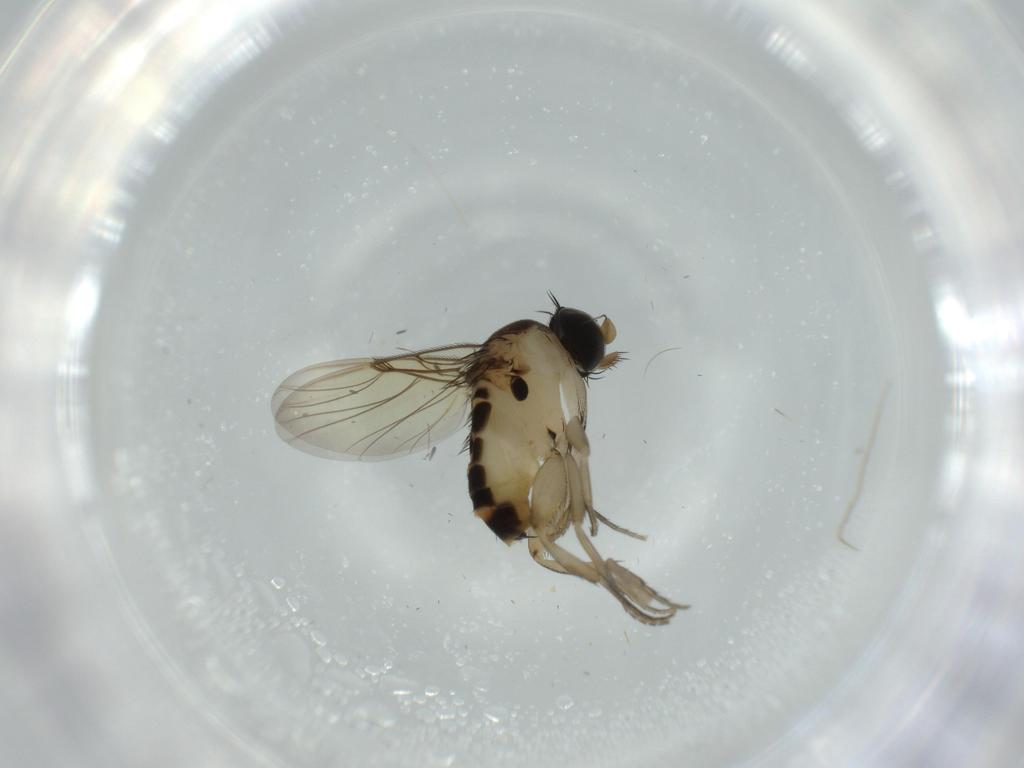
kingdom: Animalia
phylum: Arthropoda
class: Insecta
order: Diptera
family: Phoridae
